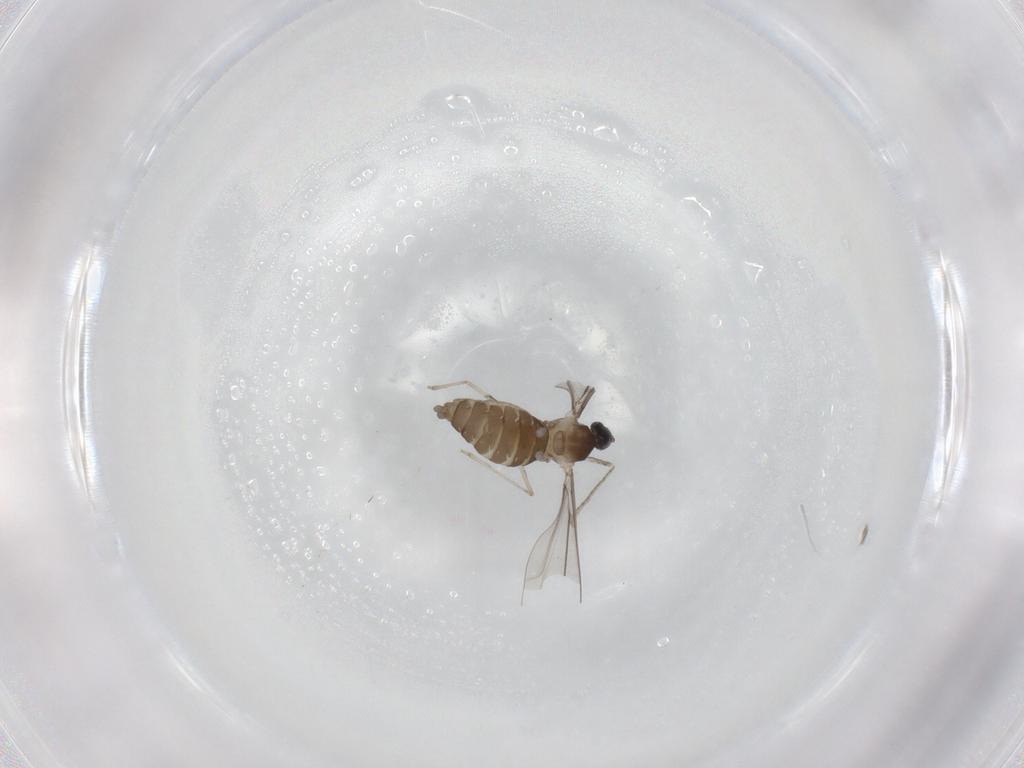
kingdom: Animalia
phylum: Arthropoda
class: Insecta
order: Diptera
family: Cecidomyiidae
